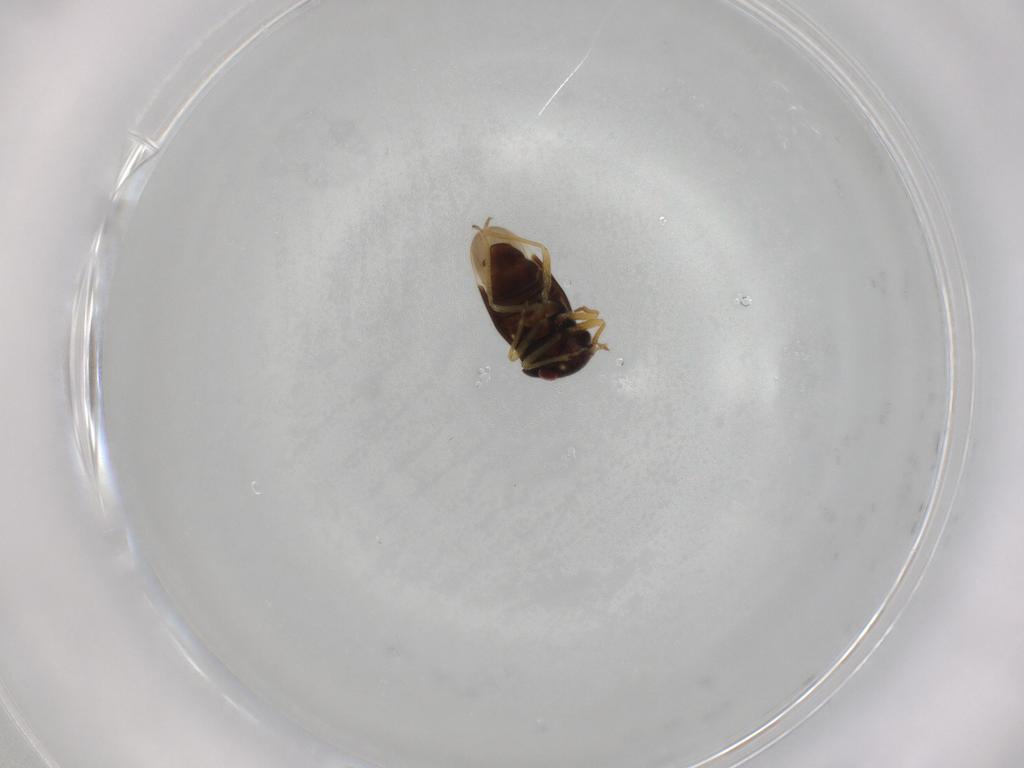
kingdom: Animalia
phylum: Arthropoda
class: Insecta
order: Hemiptera
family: Schizopteridae
